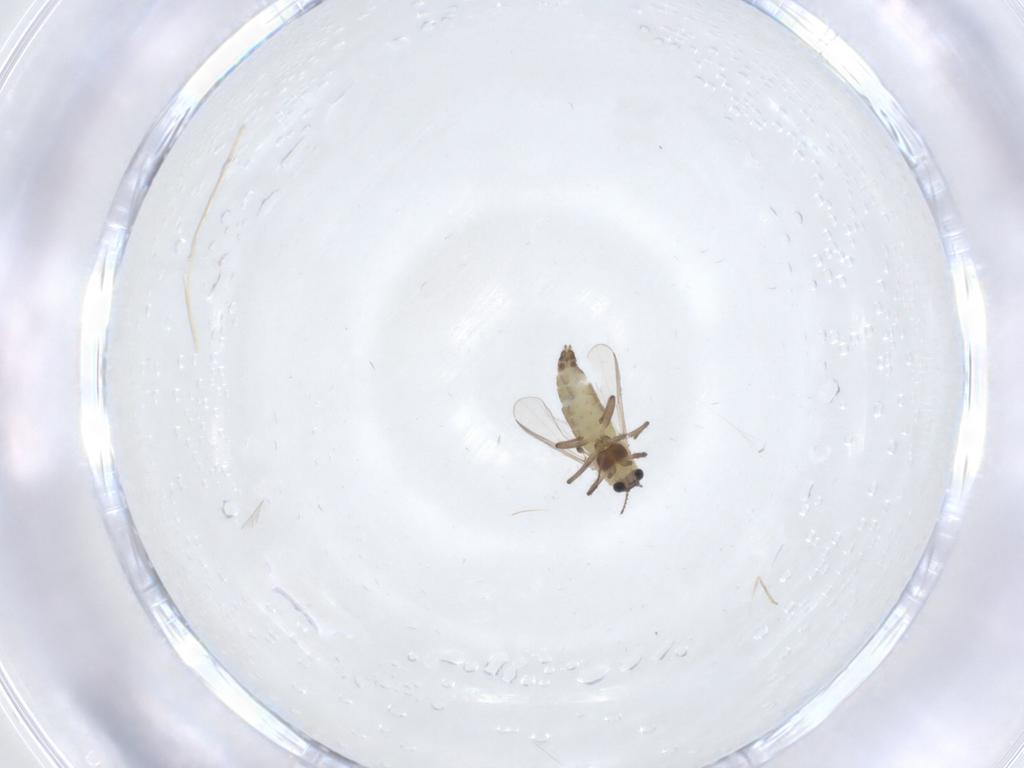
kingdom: Animalia
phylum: Arthropoda
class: Insecta
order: Diptera
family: Chironomidae
